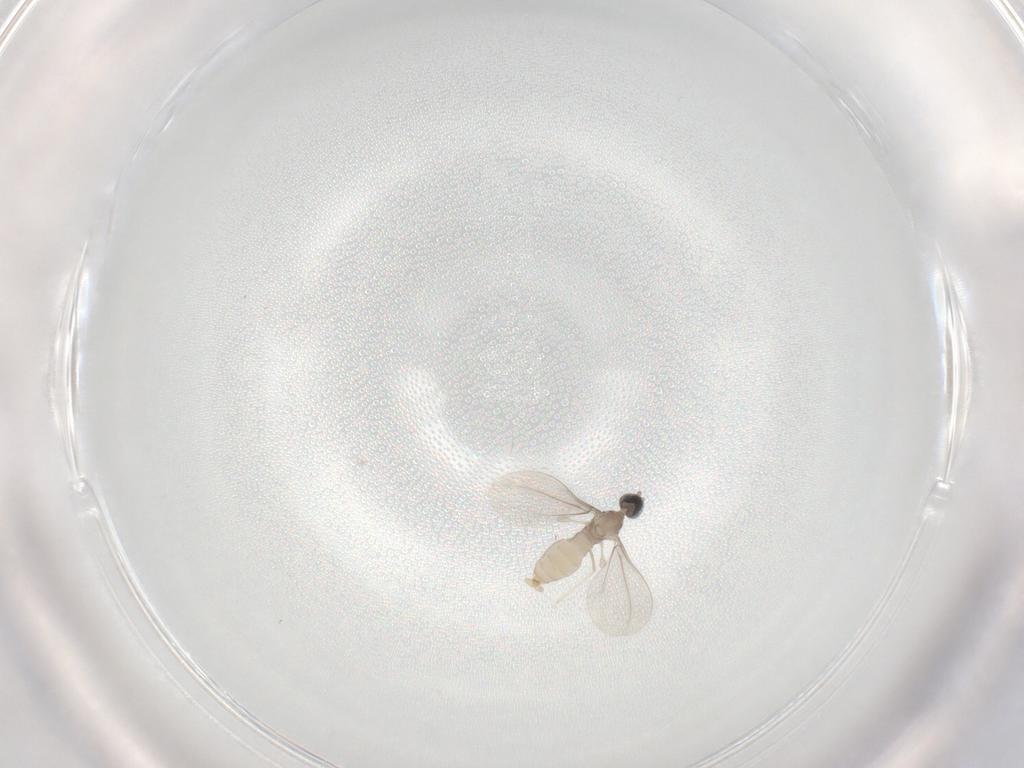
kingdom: Animalia
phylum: Arthropoda
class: Insecta
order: Diptera
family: Cecidomyiidae
